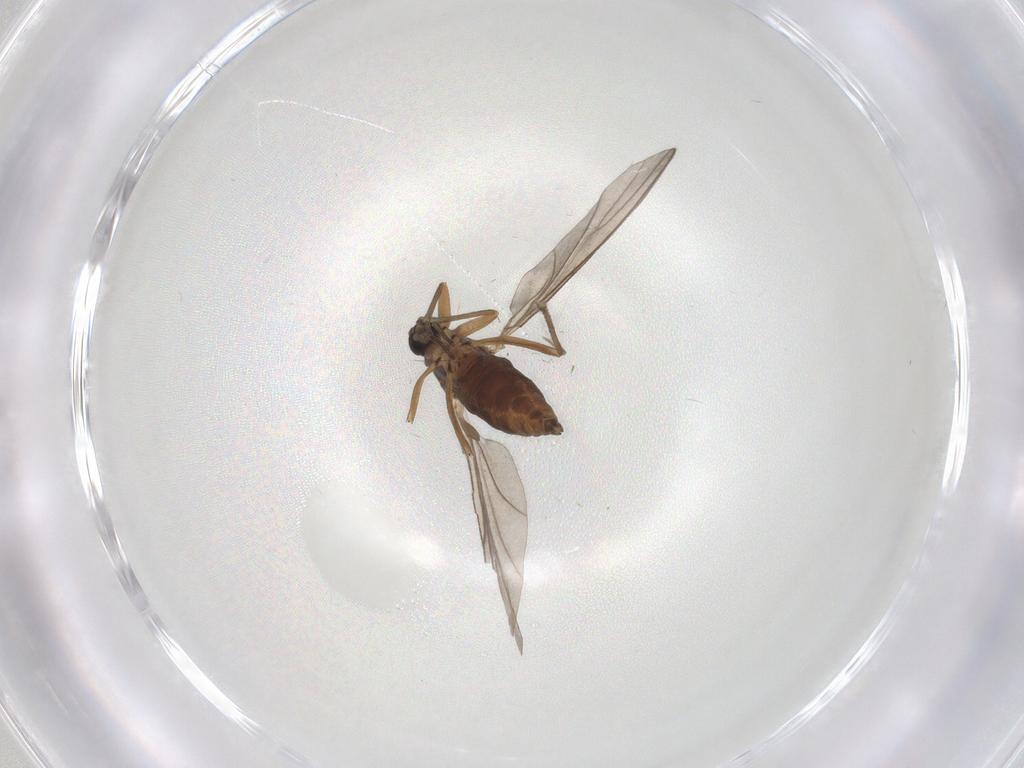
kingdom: Animalia
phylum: Arthropoda
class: Insecta
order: Diptera
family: Sciaridae
